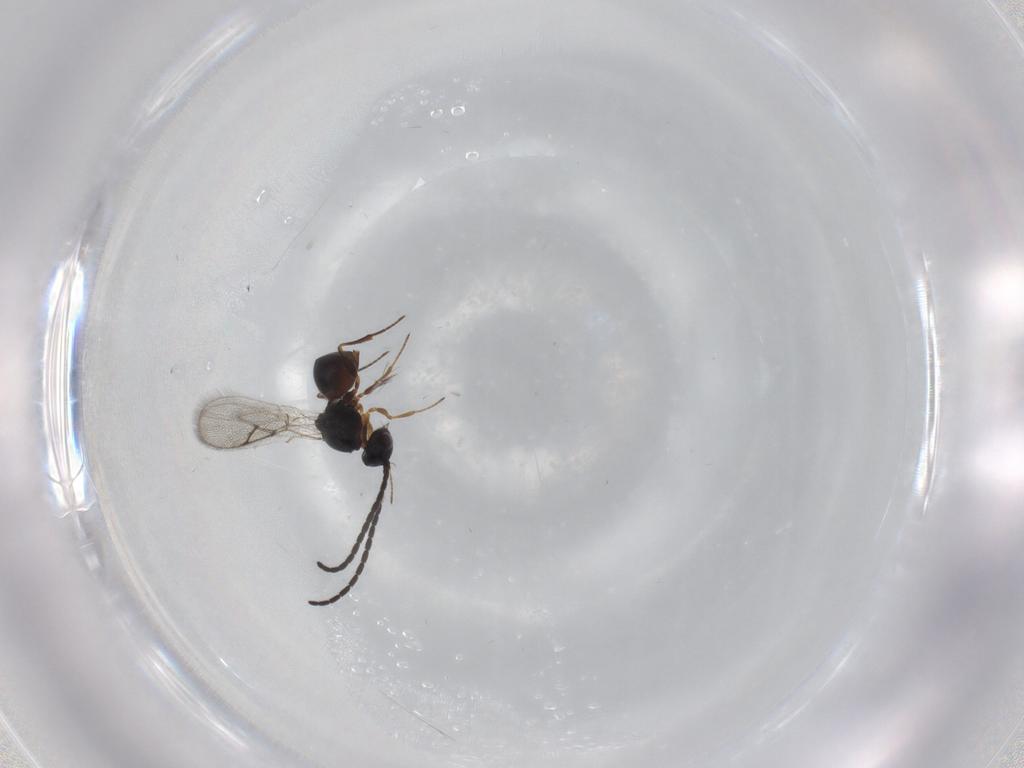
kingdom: Animalia
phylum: Arthropoda
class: Insecta
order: Hymenoptera
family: Figitidae
